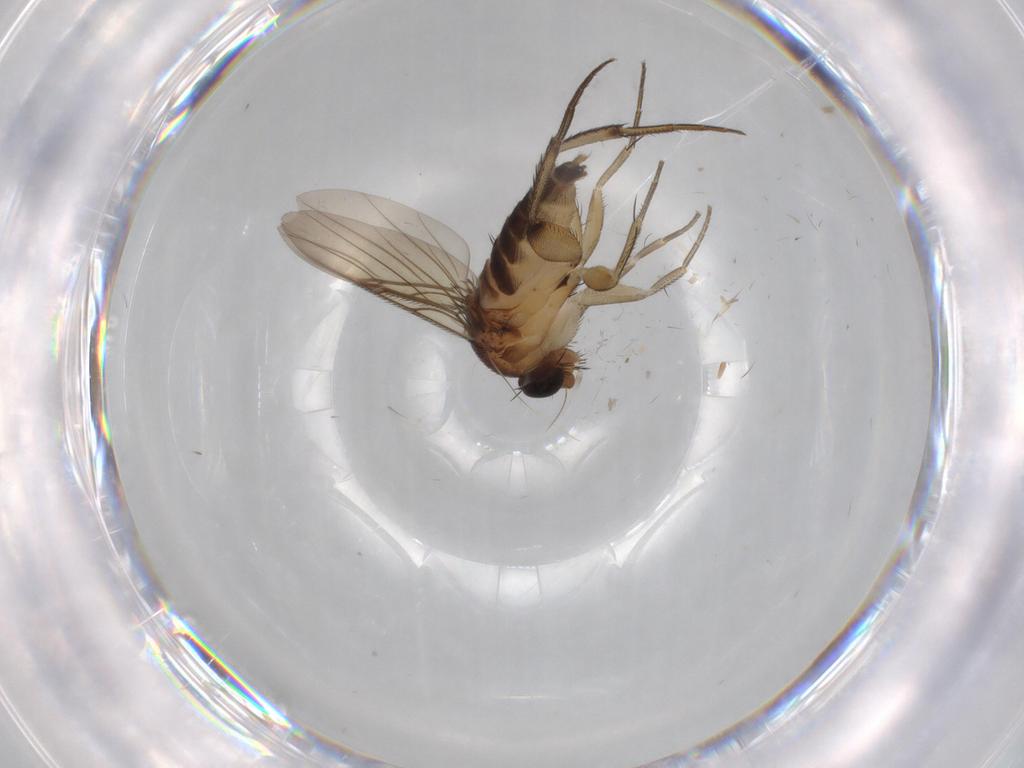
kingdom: Animalia
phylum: Arthropoda
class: Insecta
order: Diptera
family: Phoridae
